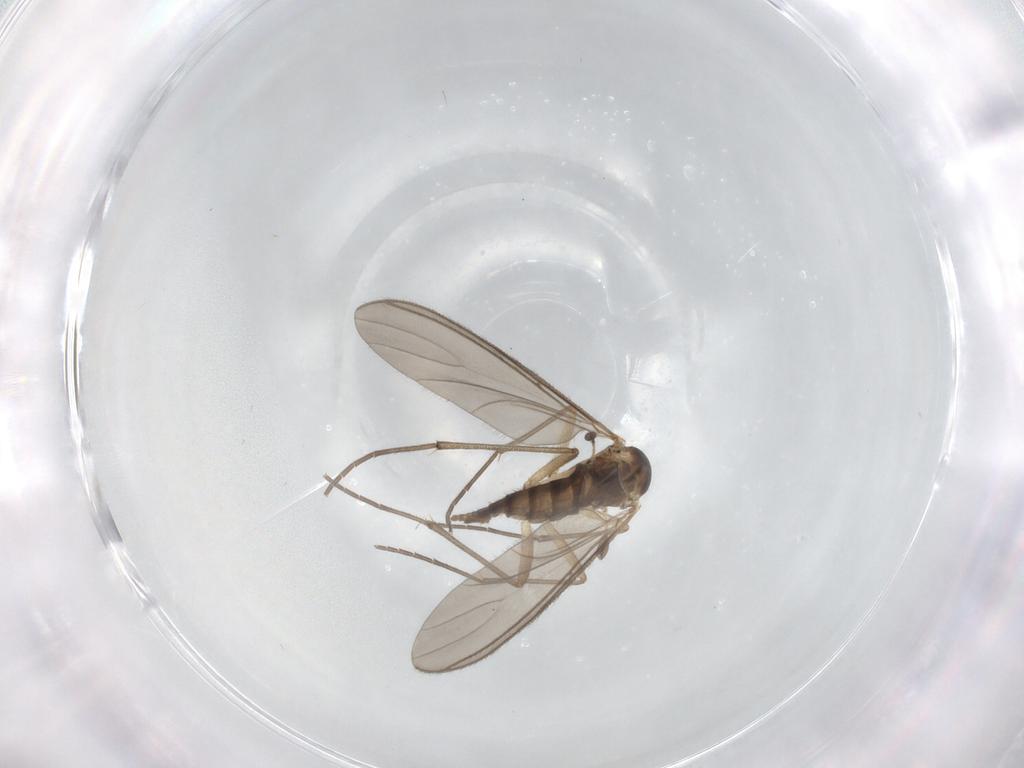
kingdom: Animalia
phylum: Arthropoda
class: Insecta
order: Diptera
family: Sciaridae
